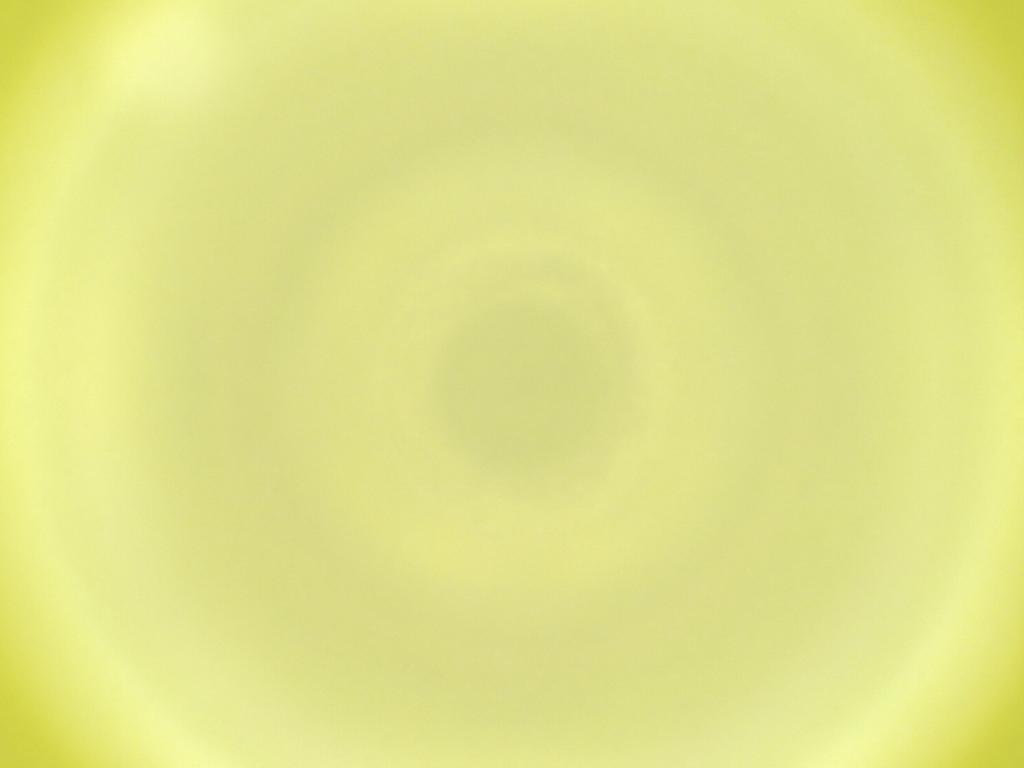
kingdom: Animalia
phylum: Arthropoda
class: Insecta
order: Diptera
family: Cecidomyiidae
